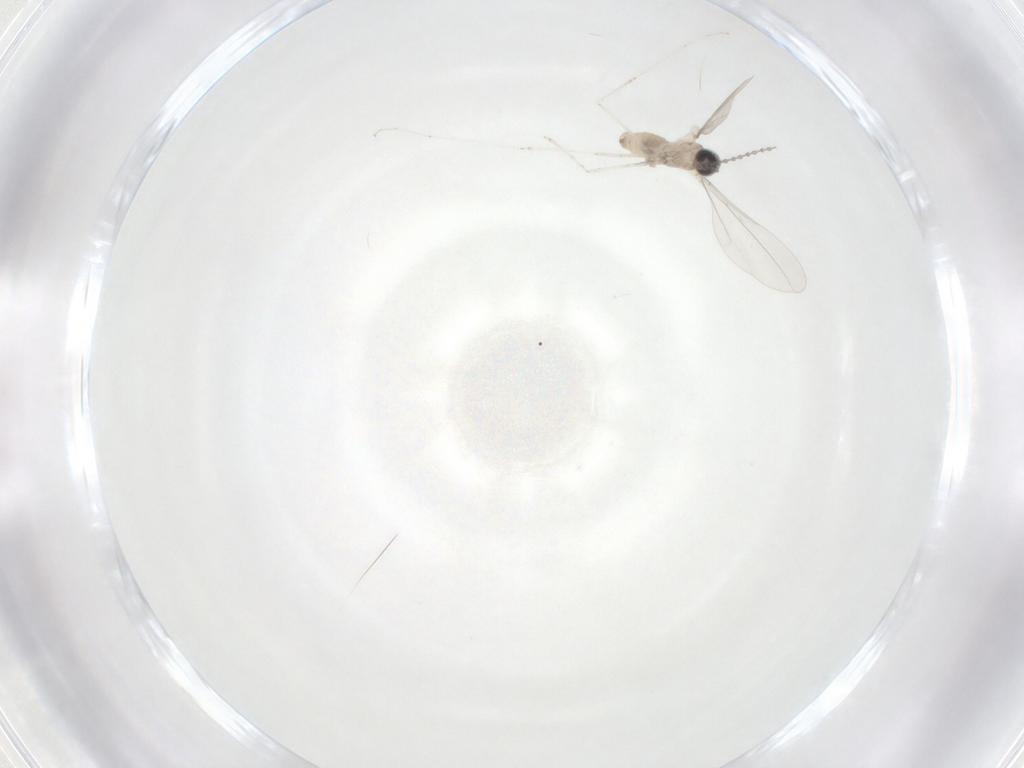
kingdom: Animalia
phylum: Arthropoda
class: Insecta
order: Diptera
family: Cecidomyiidae
